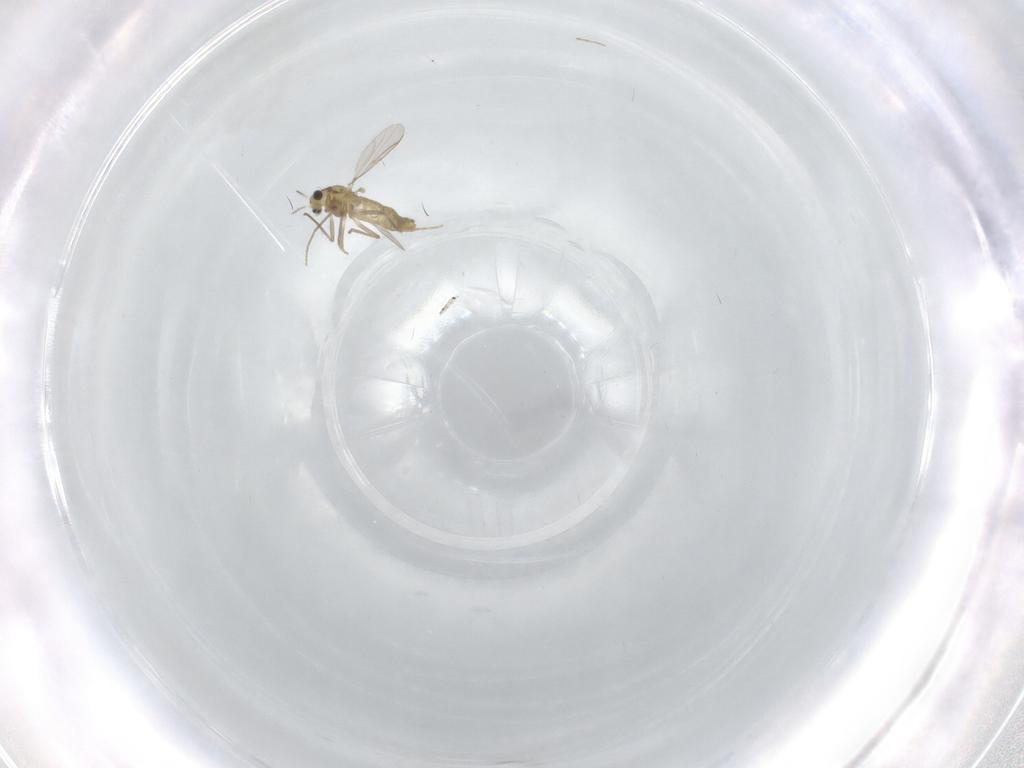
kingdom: Animalia
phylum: Arthropoda
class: Insecta
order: Diptera
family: Chironomidae
